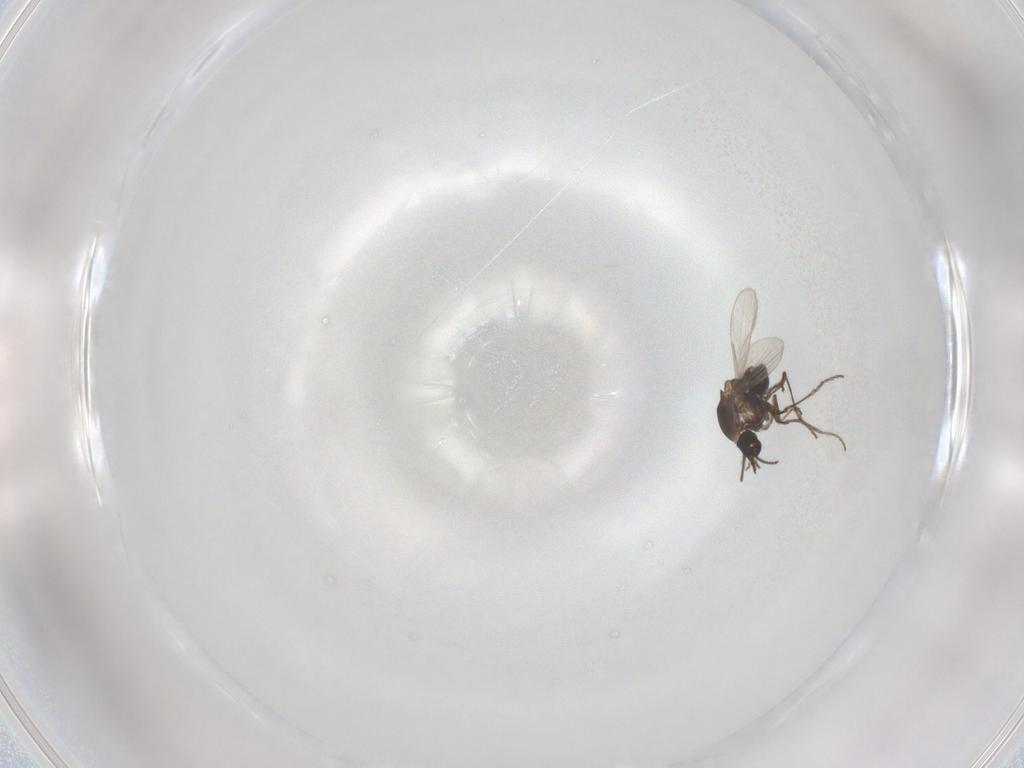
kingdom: Animalia
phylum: Arthropoda
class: Insecta
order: Diptera
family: Ceratopogonidae
